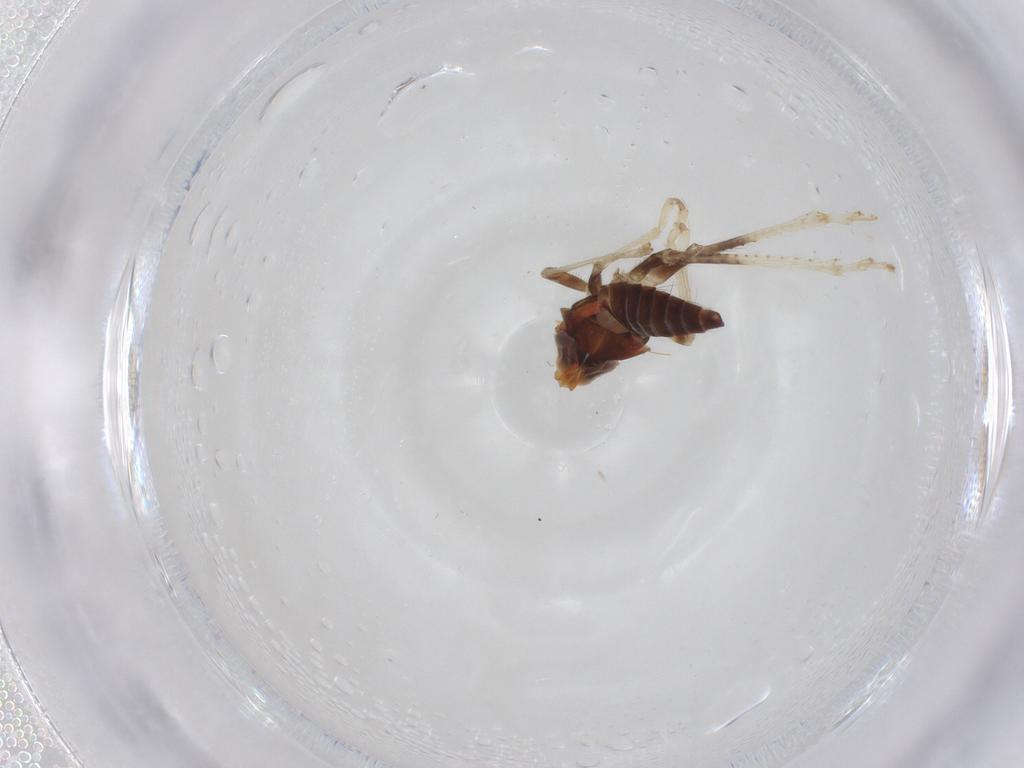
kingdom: Animalia
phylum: Arthropoda
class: Insecta
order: Hemiptera
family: Cicadellidae
